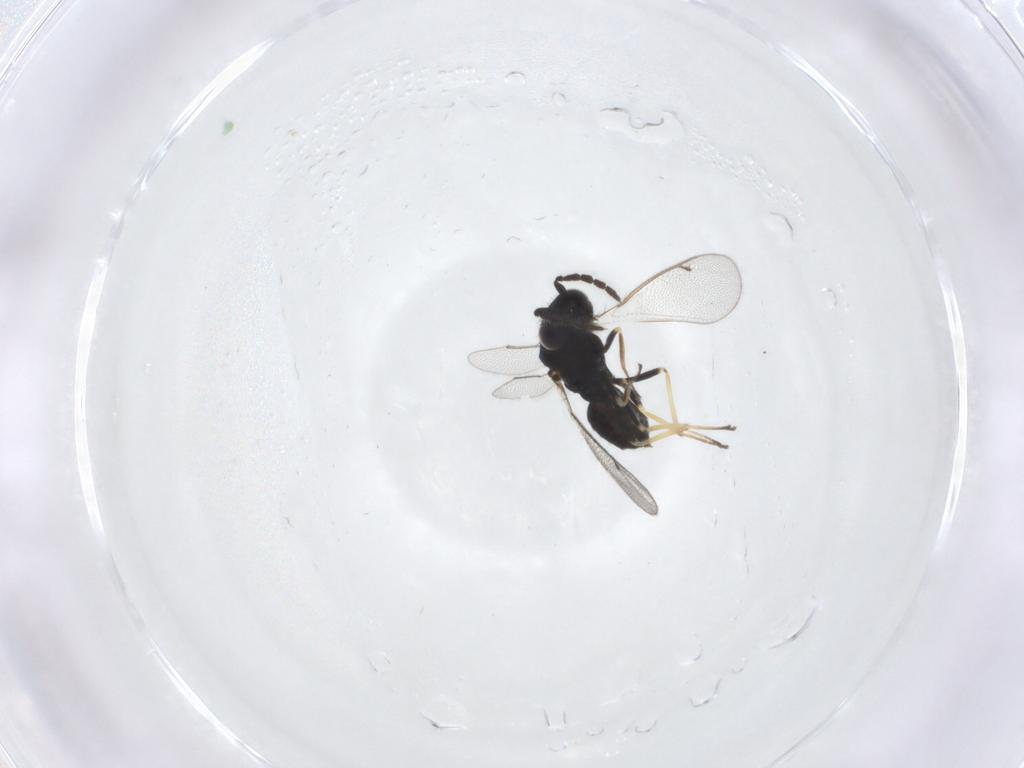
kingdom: Animalia
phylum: Arthropoda
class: Insecta
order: Hymenoptera
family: Eulophidae
